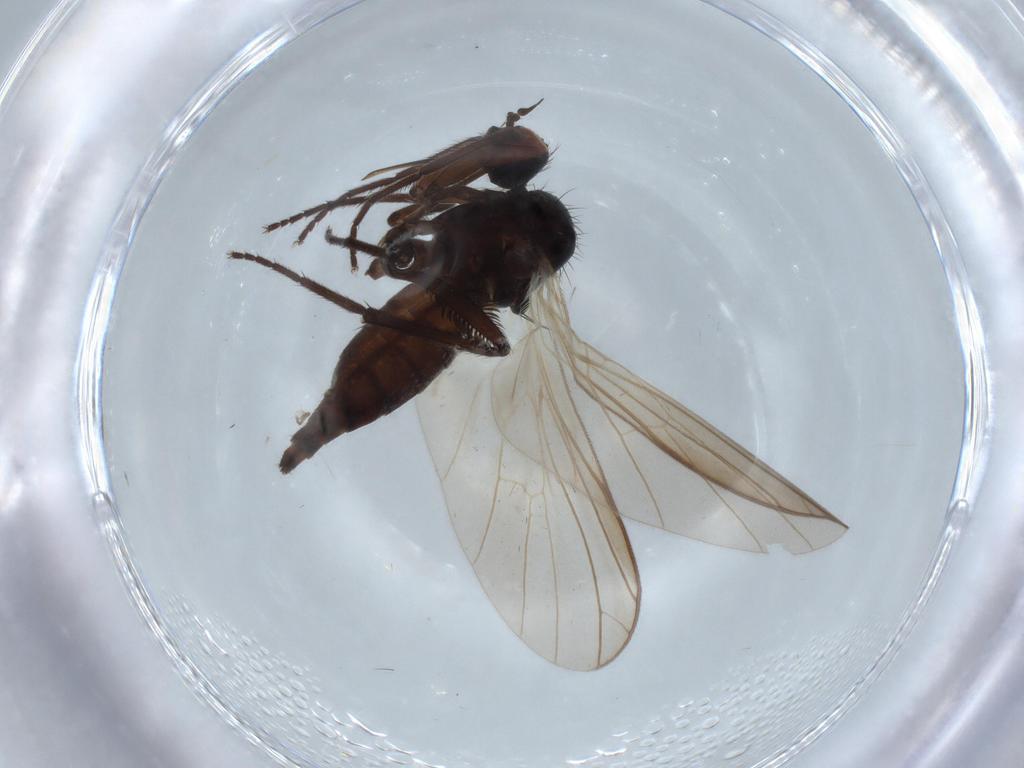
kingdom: Animalia
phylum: Arthropoda
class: Insecta
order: Diptera
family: Empididae
